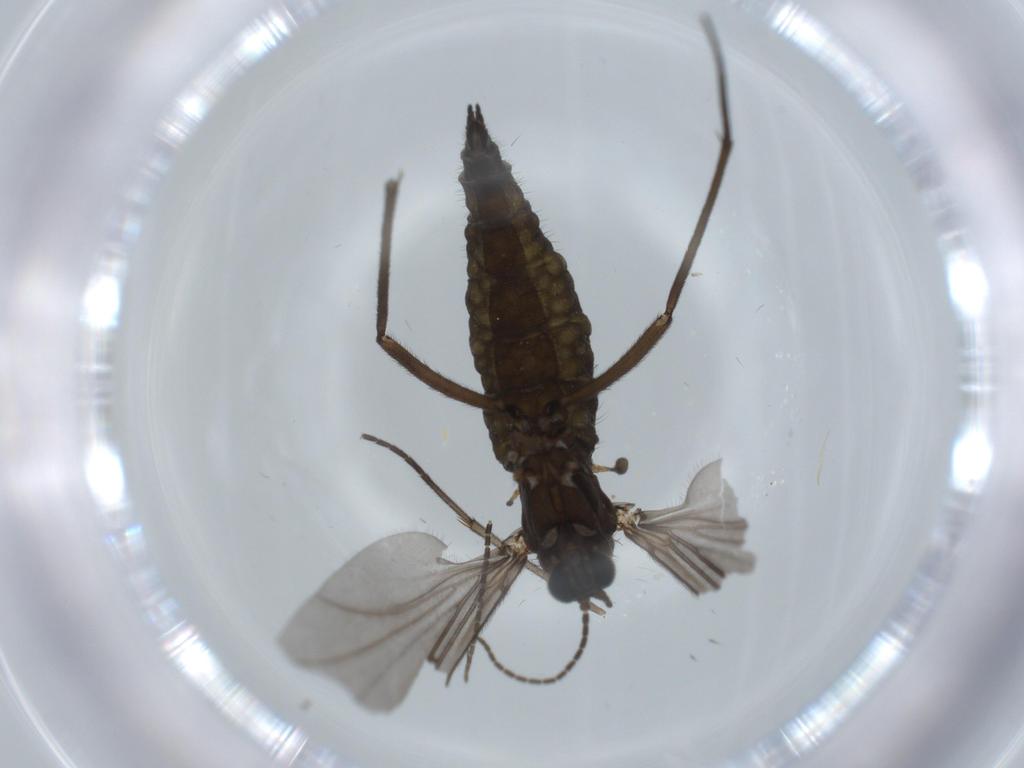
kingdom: Animalia
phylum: Arthropoda
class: Insecta
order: Diptera
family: Sciaridae
